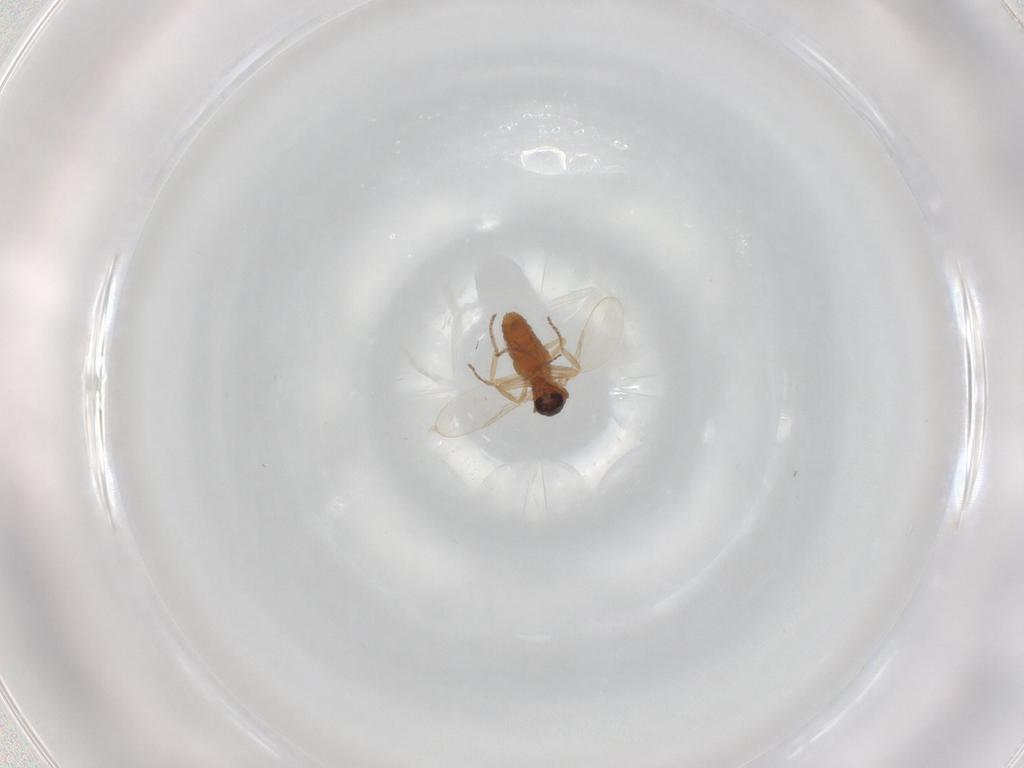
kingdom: Animalia
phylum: Arthropoda
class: Insecta
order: Diptera
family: Ceratopogonidae
